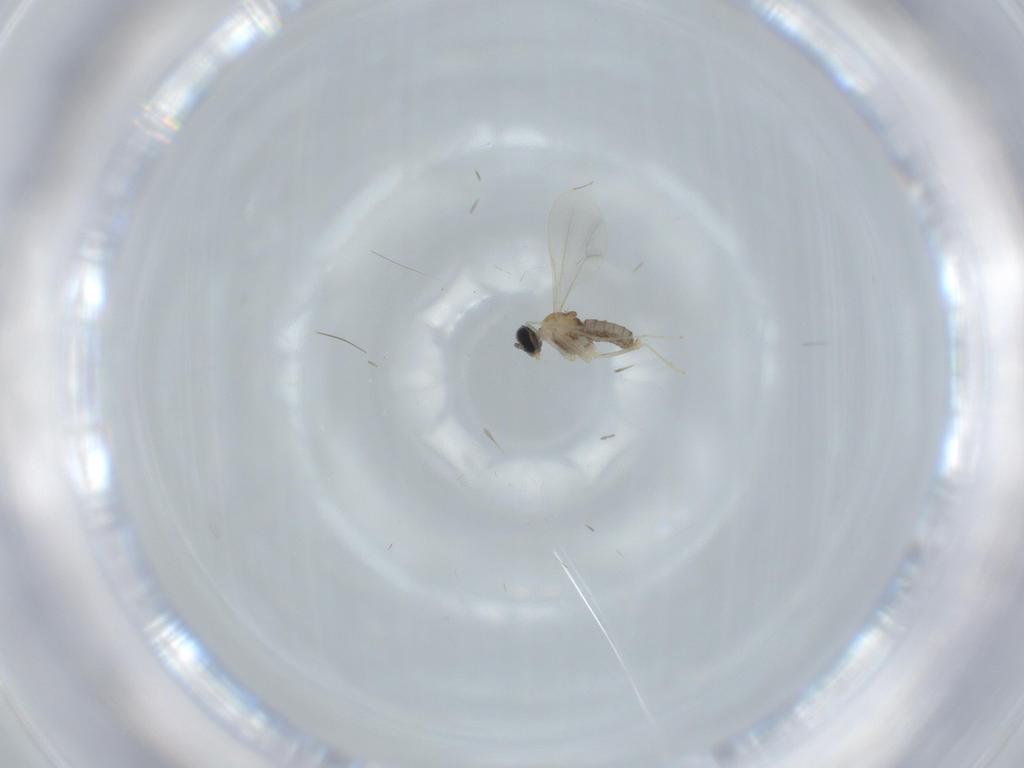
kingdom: Animalia
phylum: Arthropoda
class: Insecta
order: Diptera
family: Cecidomyiidae
